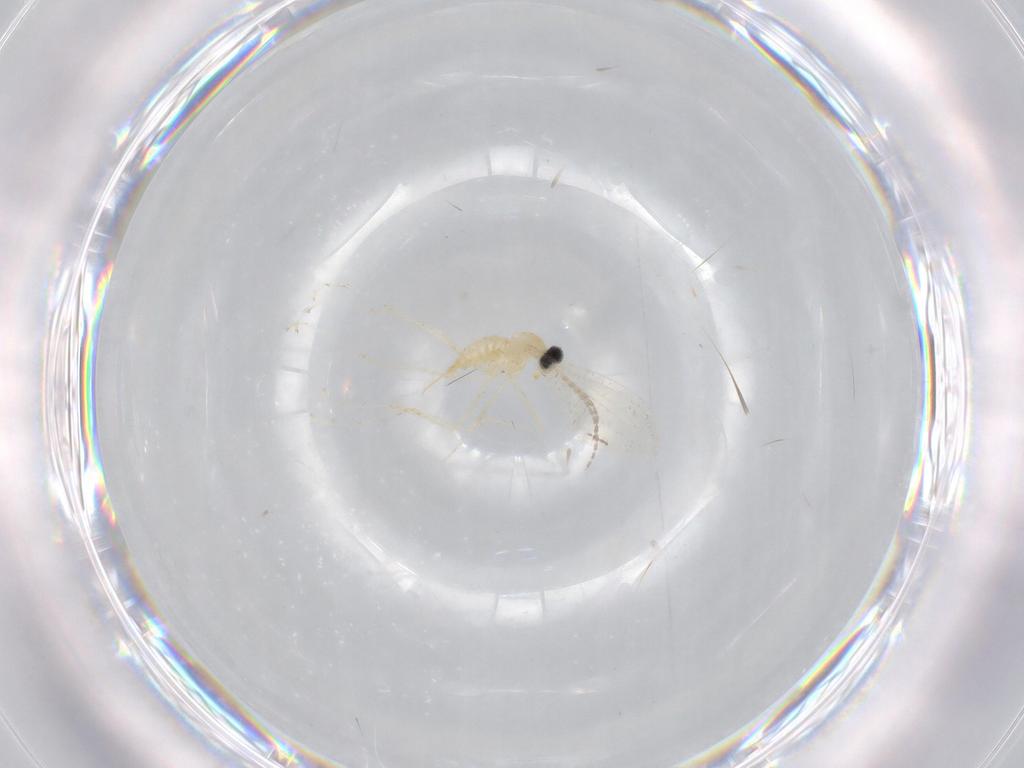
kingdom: Animalia
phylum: Arthropoda
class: Insecta
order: Diptera
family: Cecidomyiidae
